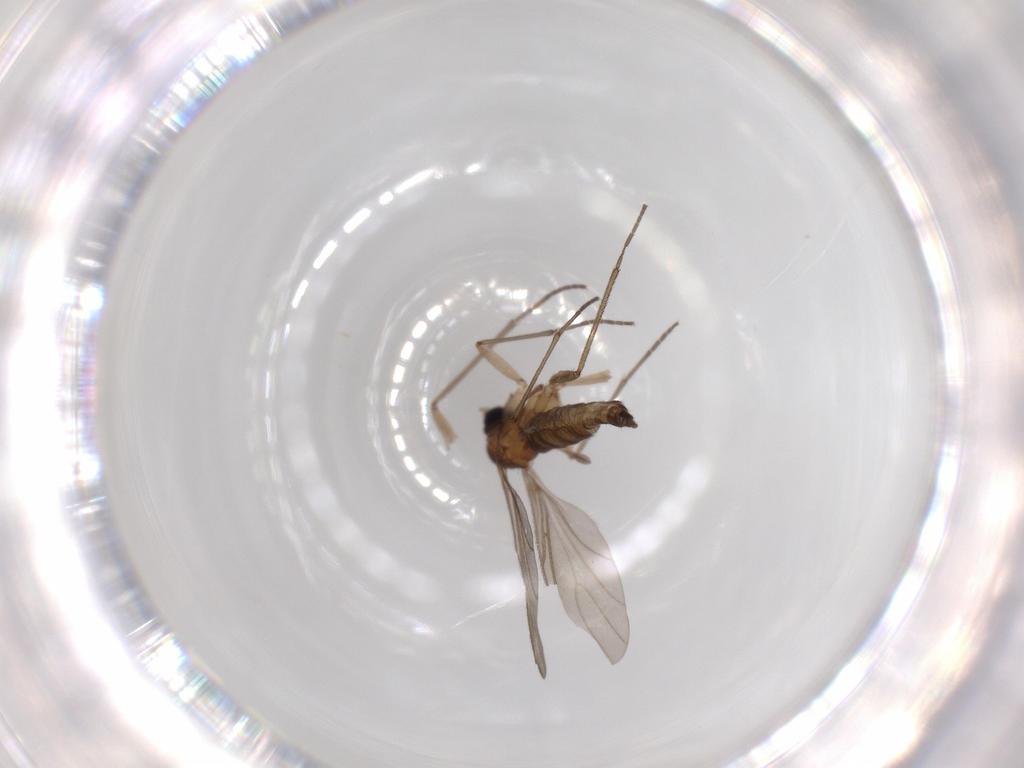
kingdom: Animalia
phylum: Arthropoda
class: Insecta
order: Diptera
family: Sciaridae
